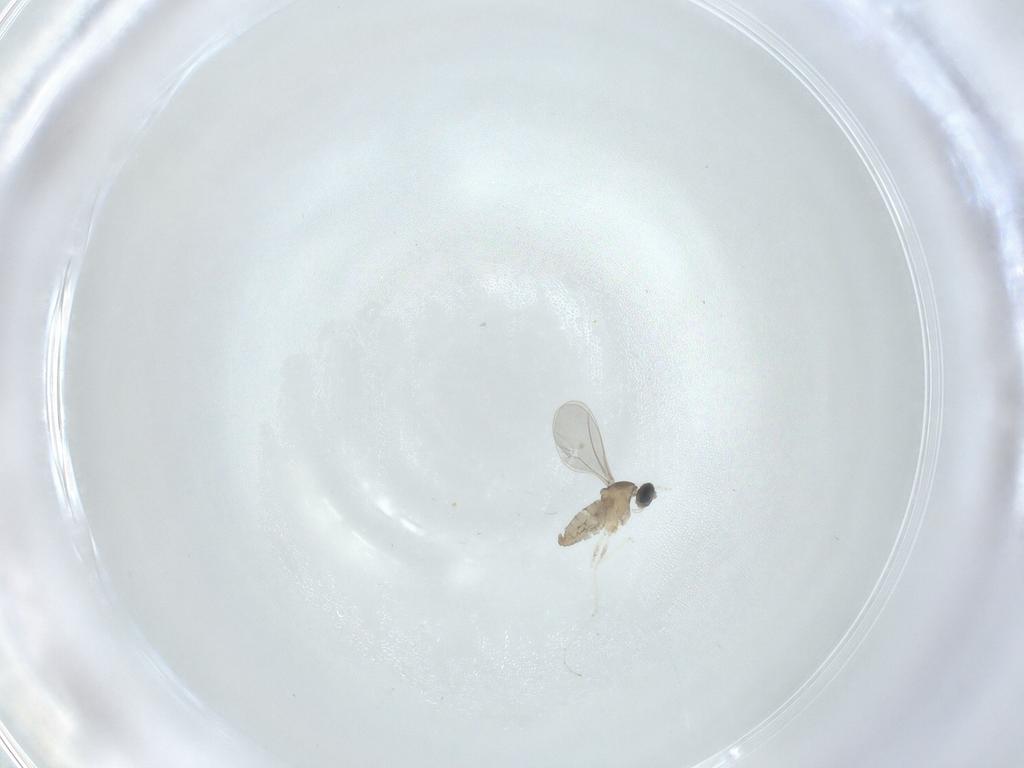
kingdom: Animalia
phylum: Arthropoda
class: Insecta
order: Diptera
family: Cecidomyiidae
